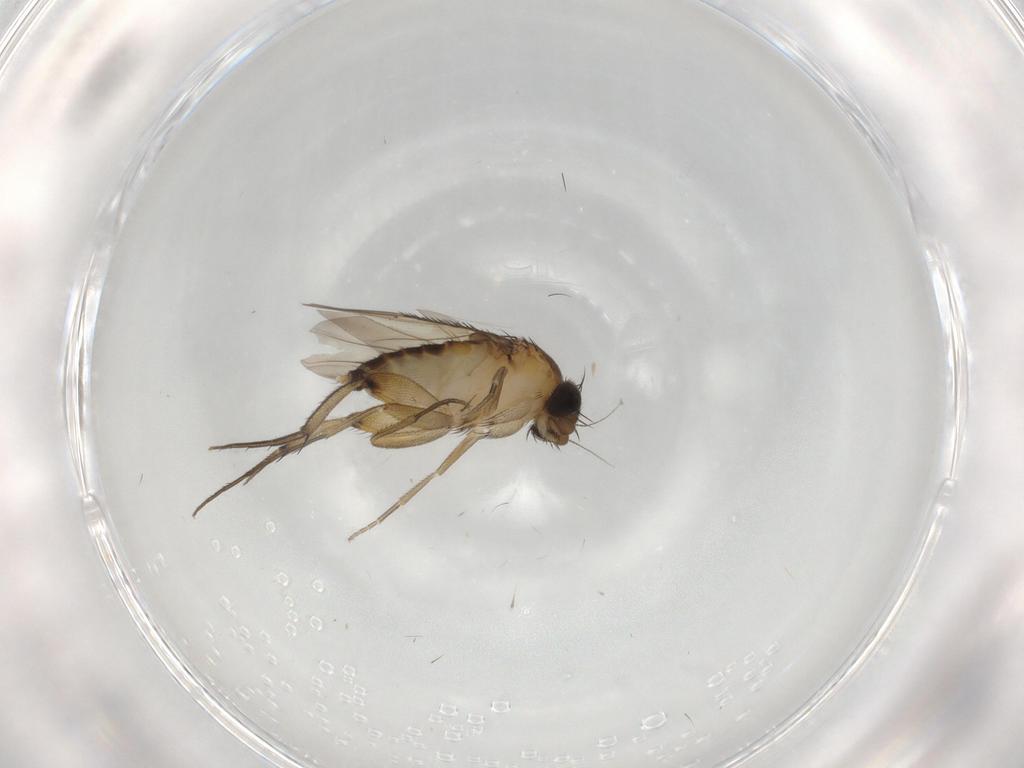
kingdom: Animalia
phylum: Arthropoda
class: Insecta
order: Diptera
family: Phoridae
